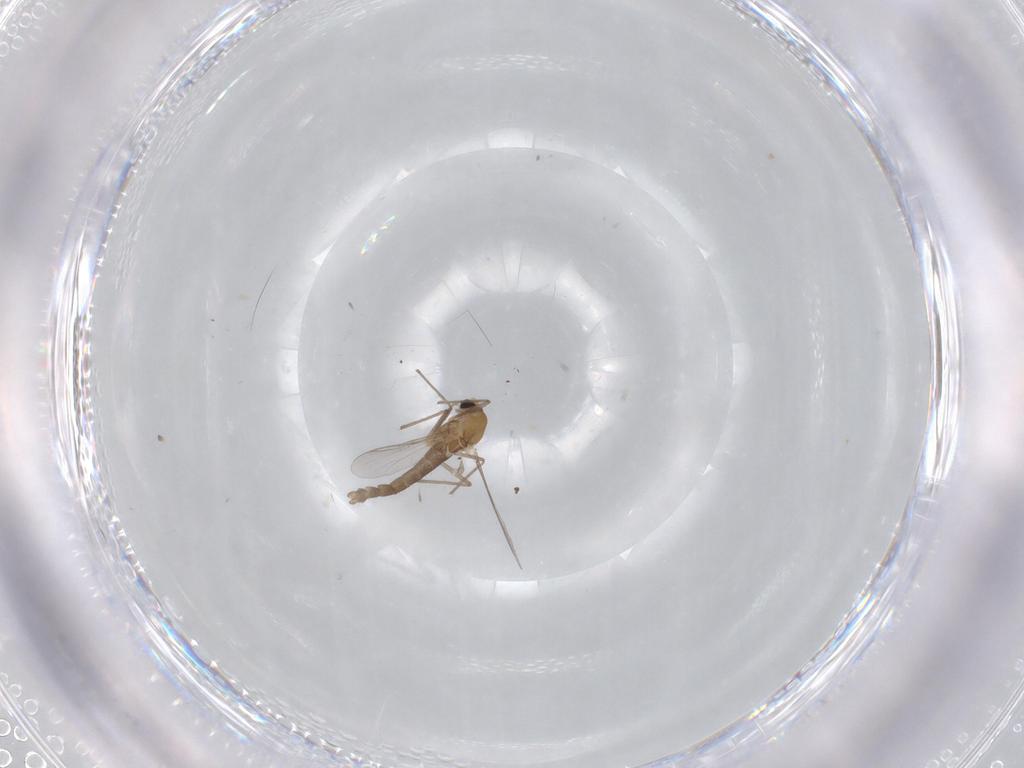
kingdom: Animalia
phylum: Arthropoda
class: Insecta
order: Diptera
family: Chironomidae
